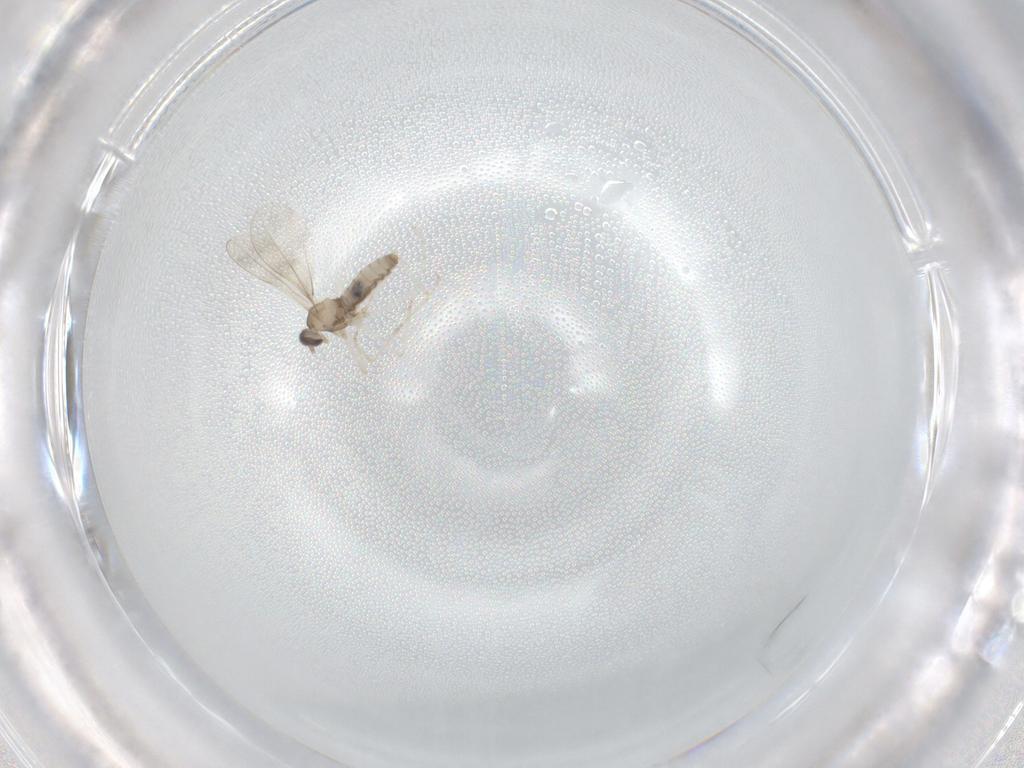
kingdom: Animalia
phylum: Arthropoda
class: Insecta
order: Diptera
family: Cecidomyiidae
